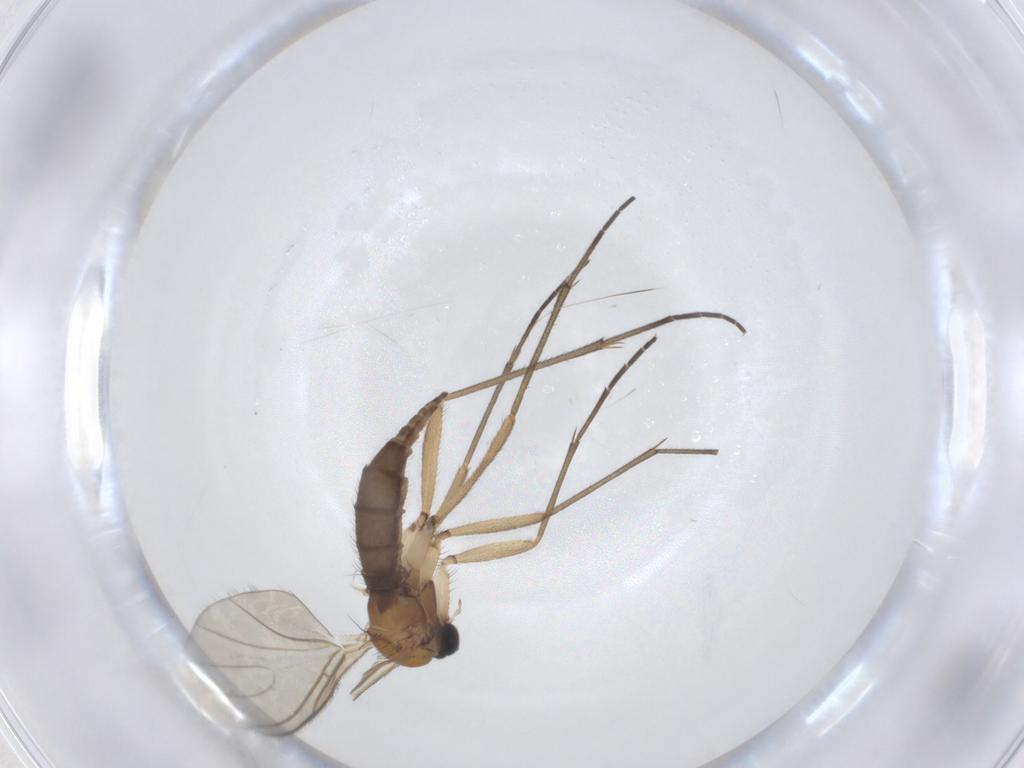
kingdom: Animalia
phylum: Arthropoda
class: Insecta
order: Diptera
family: Sciaridae
